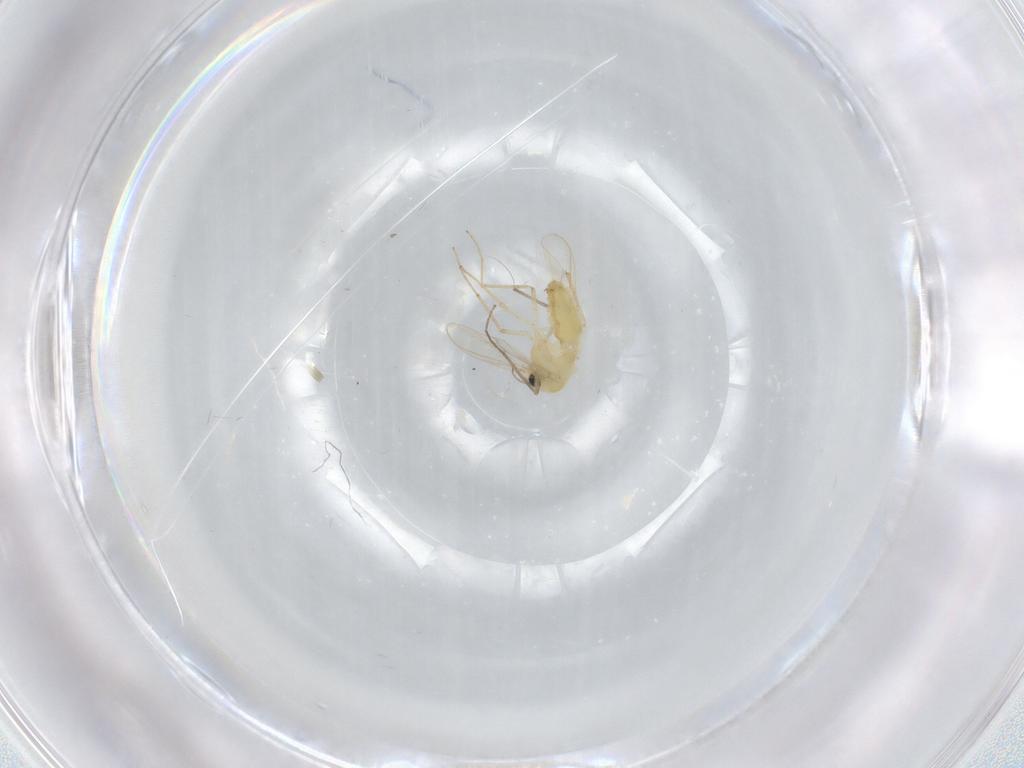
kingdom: Animalia
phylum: Arthropoda
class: Insecta
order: Diptera
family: Chironomidae
